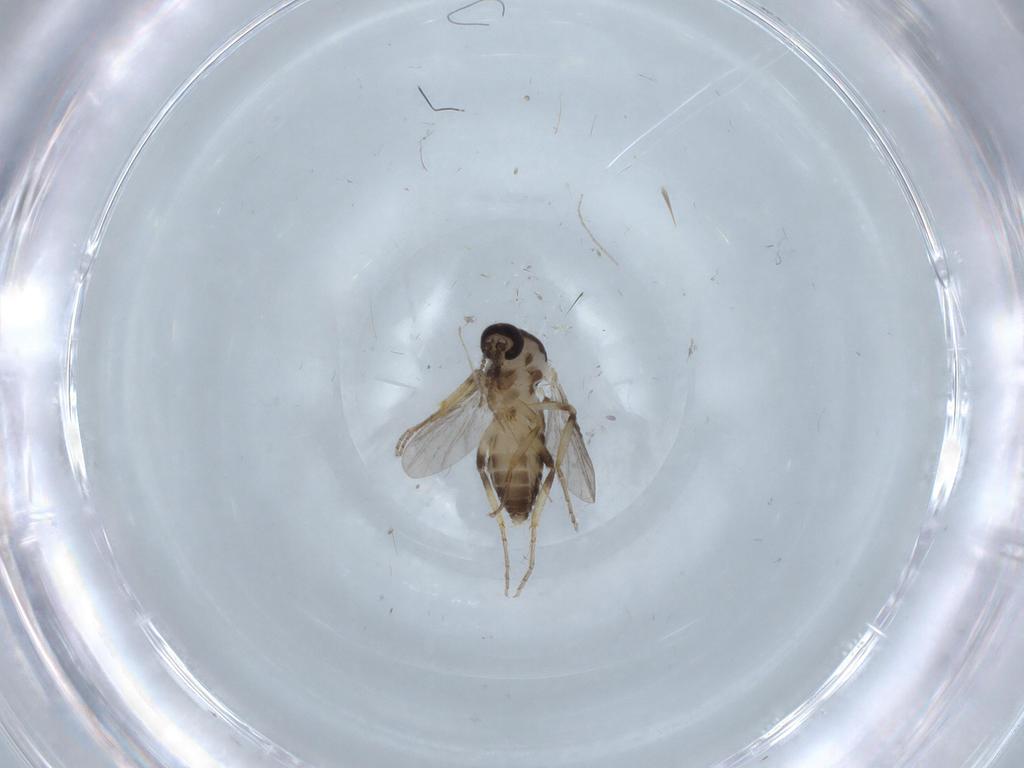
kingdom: Animalia
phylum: Arthropoda
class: Insecta
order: Diptera
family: Ceratopogonidae
